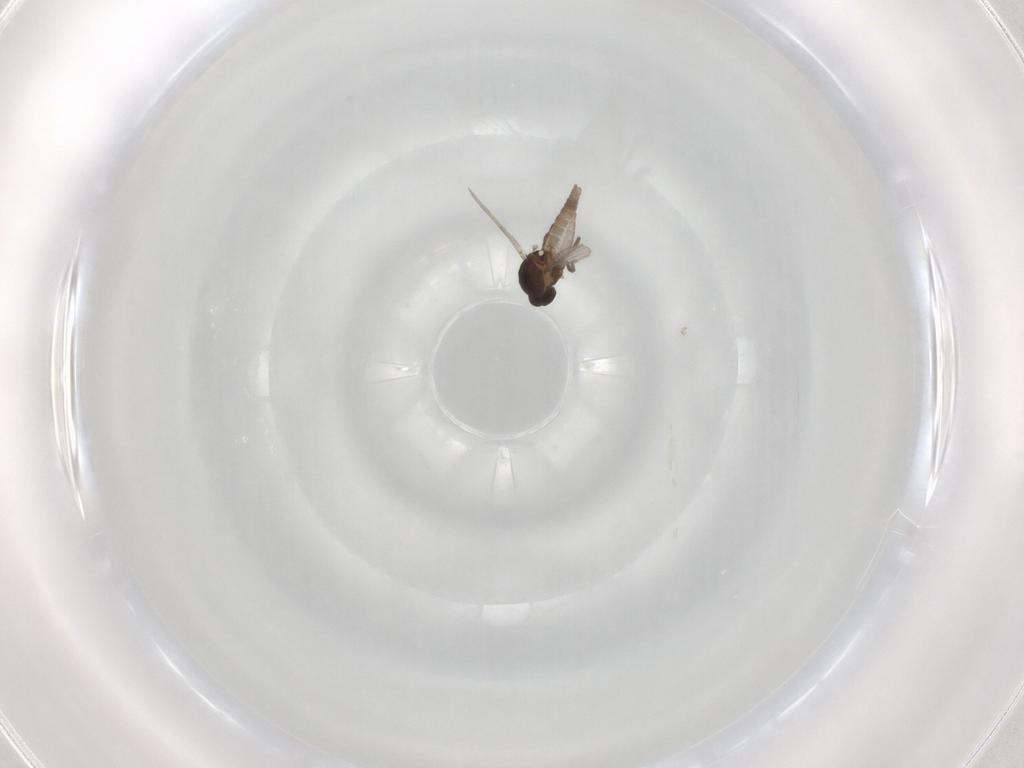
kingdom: Animalia
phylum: Arthropoda
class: Insecta
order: Diptera
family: Ceratopogonidae
